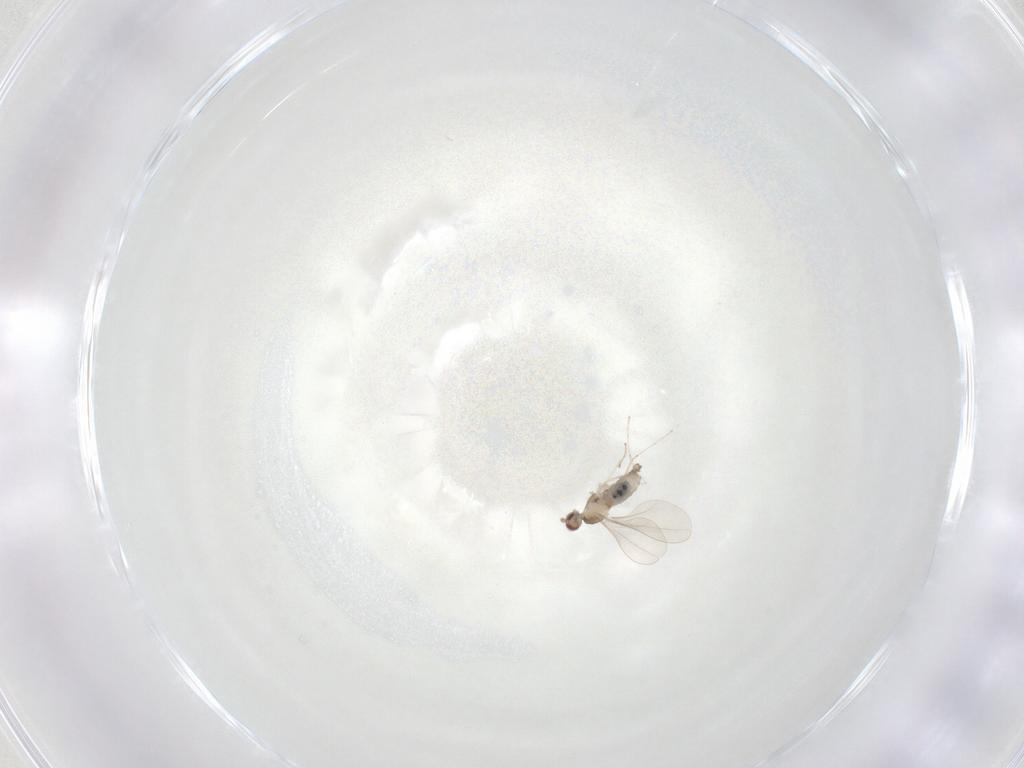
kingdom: Animalia
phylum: Arthropoda
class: Insecta
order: Diptera
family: Cecidomyiidae
